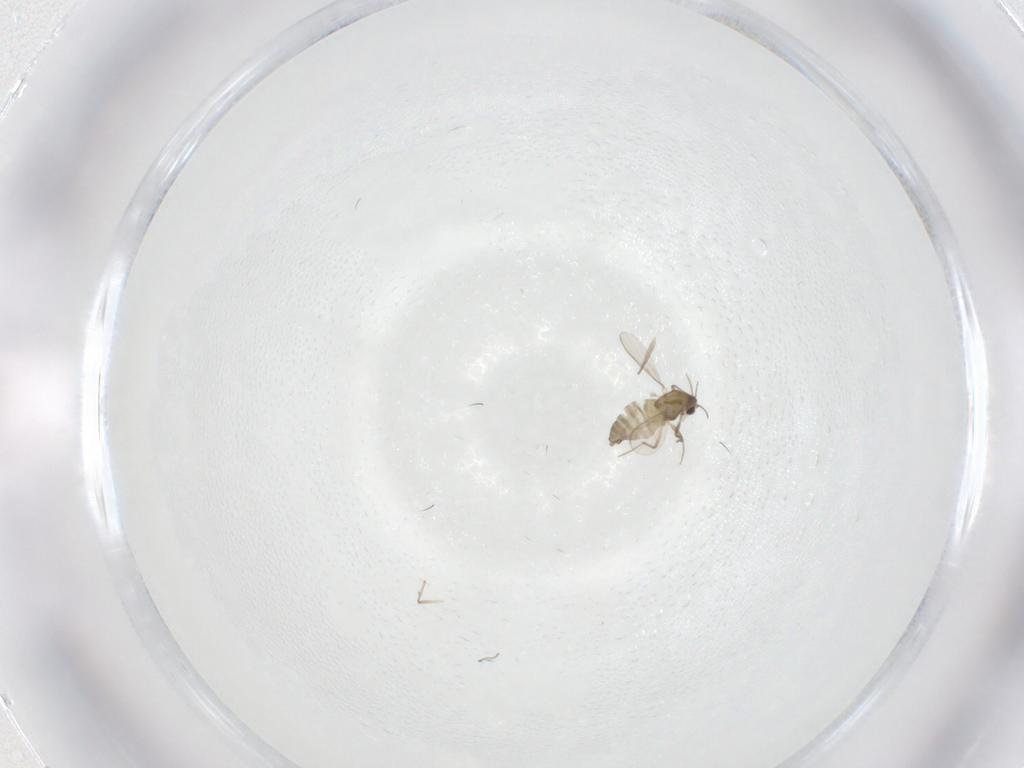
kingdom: Animalia
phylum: Arthropoda
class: Insecta
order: Diptera
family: Chironomidae
